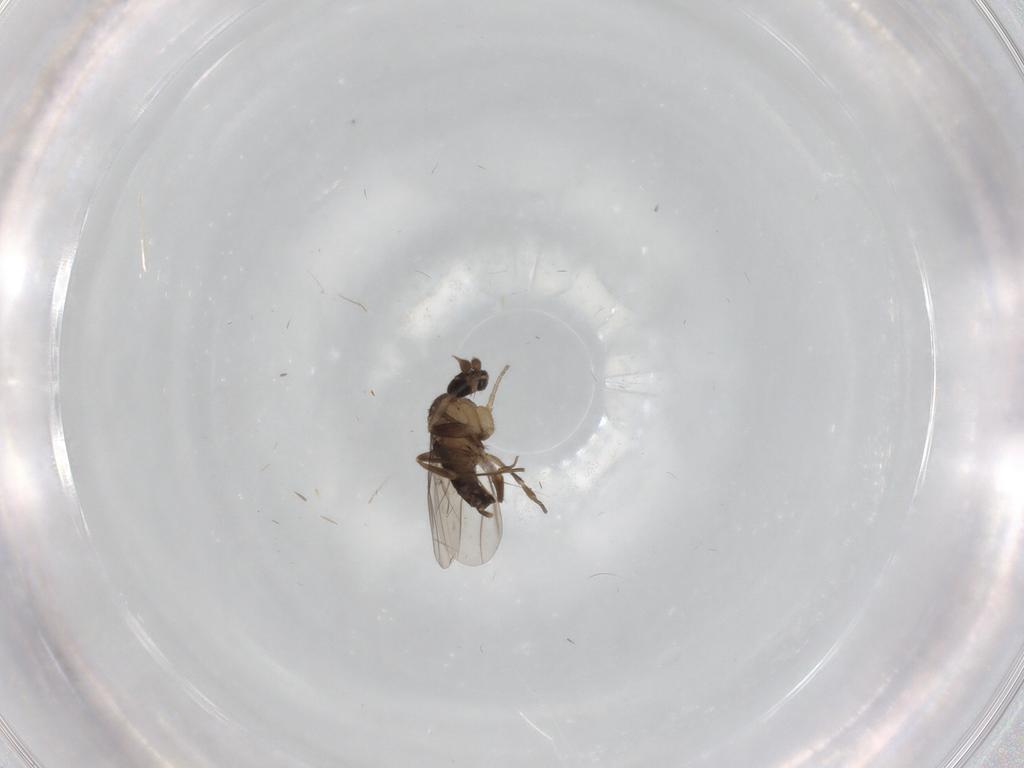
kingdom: Animalia
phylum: Arthropoda
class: Insecta
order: Diptera
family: Phoridae
